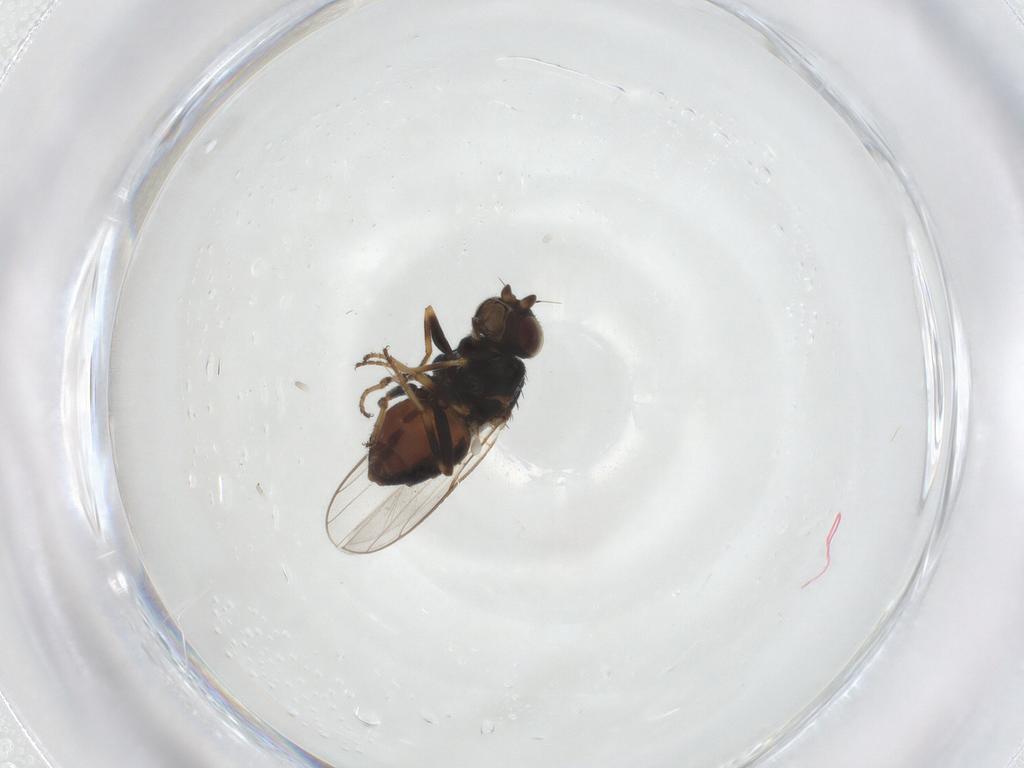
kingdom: Animalia
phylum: Arthropoda
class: Insecta
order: Diptera
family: Chloropidae
